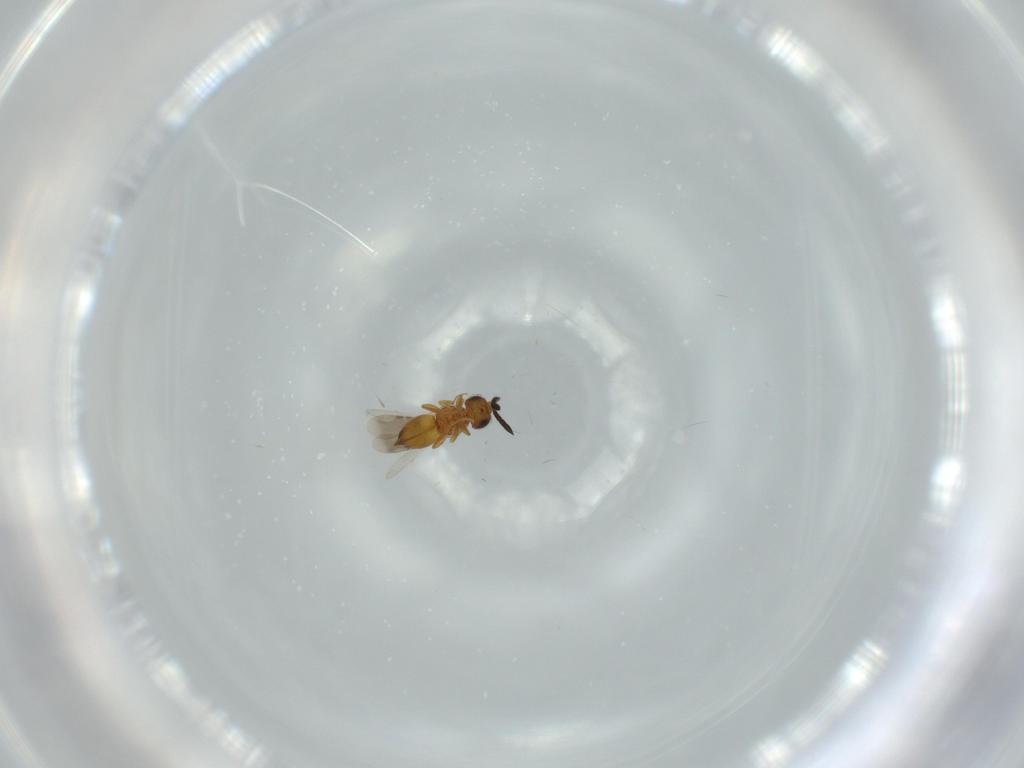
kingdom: Animalia
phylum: Arthropoda
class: Insecta
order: Hymenoptera
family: Ceraphronidae
